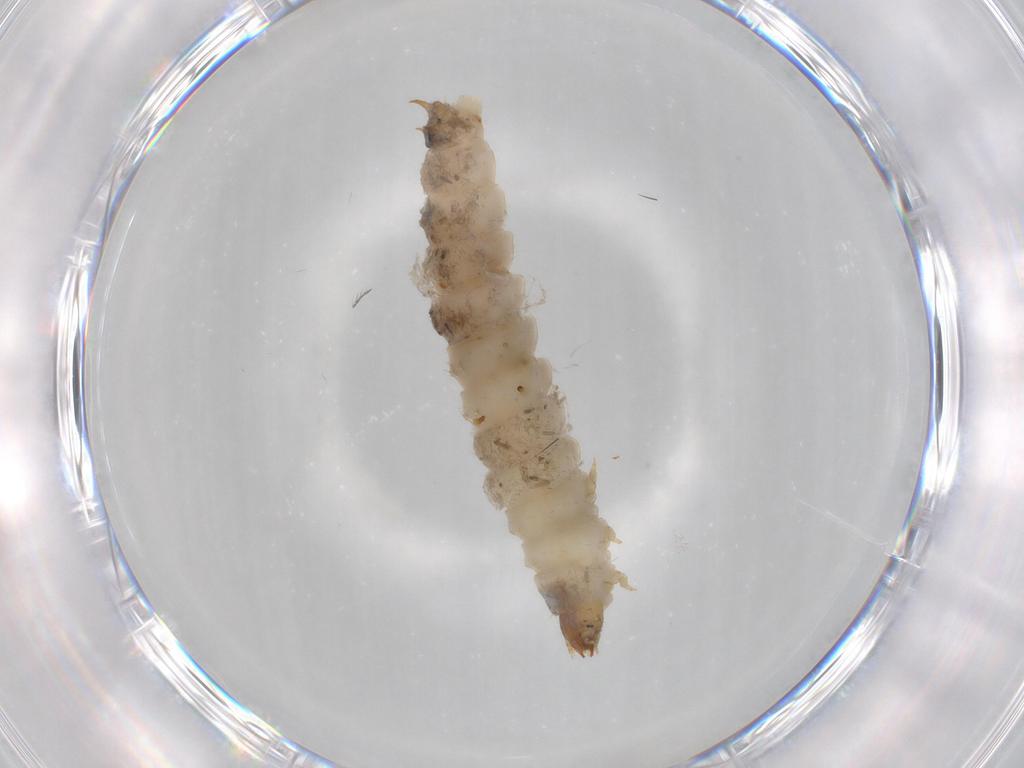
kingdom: Animalia
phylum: Arthropoda
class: Insecta
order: Coleoptera
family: Nitidulidae
